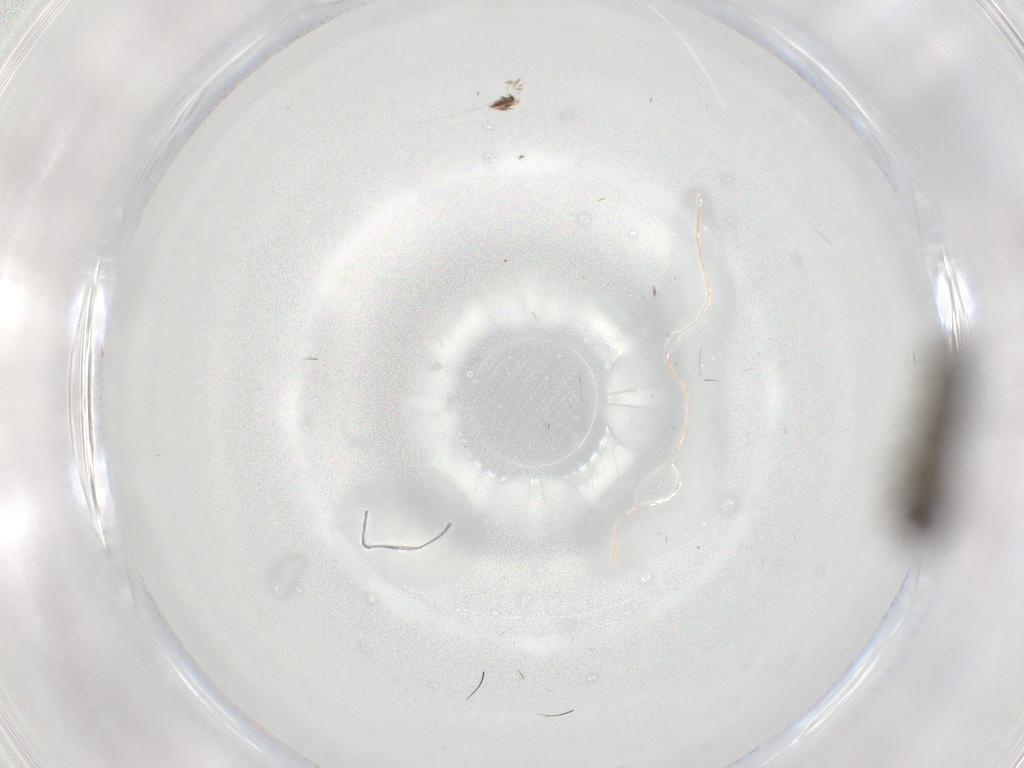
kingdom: Animalia
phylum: Arthropoda
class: Insecta
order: Diptera
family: Dolichopodidae
